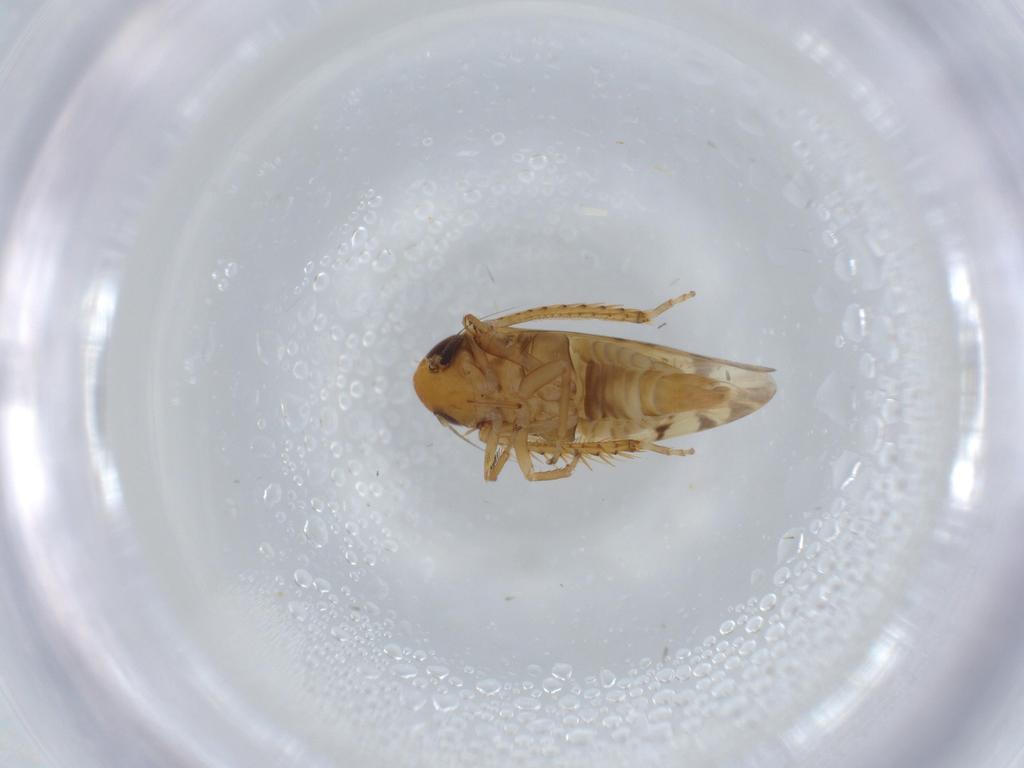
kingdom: Animalia
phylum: Arthropoda
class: Insecta
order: Hemiptera
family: Cicadellidae
